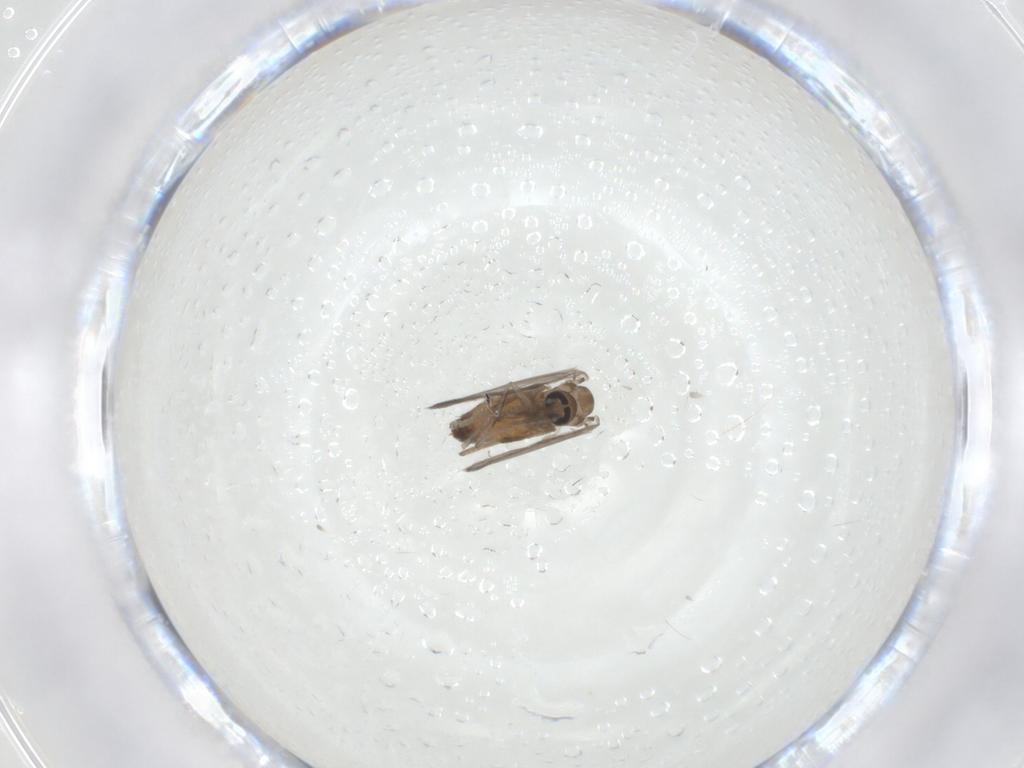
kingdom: Animalia
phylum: Arthropoda
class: Insecta
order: Diptera
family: Psychodidae
